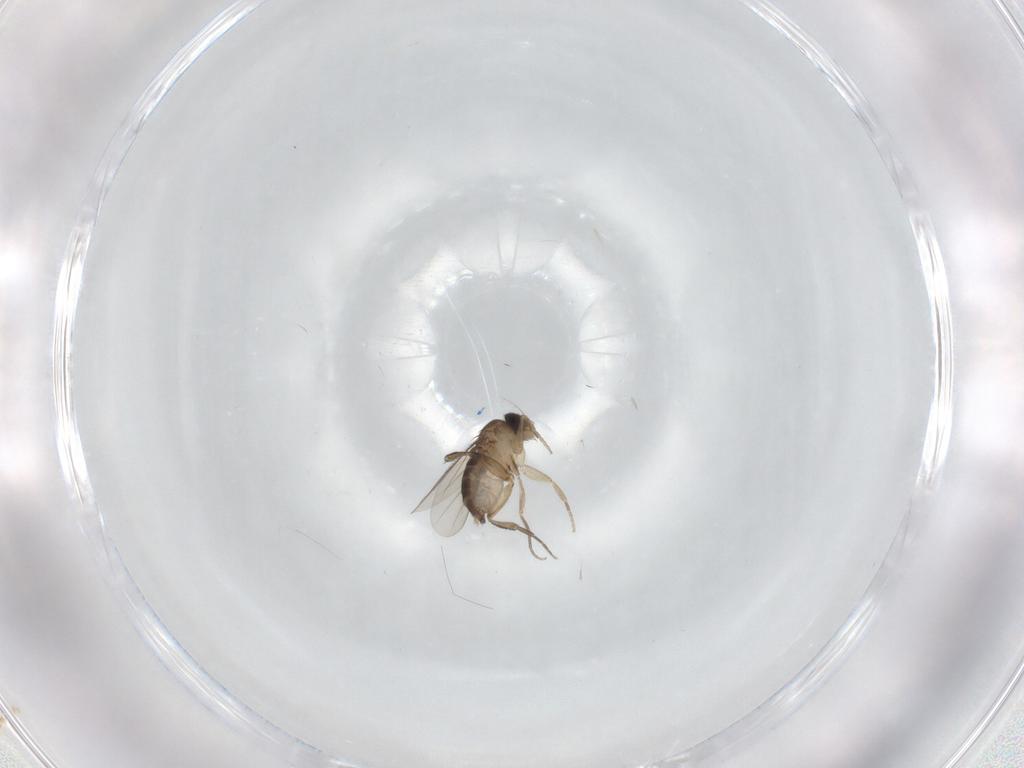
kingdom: Animalia
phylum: Arthropoda
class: Insecta
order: Diptera
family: Phoridae
